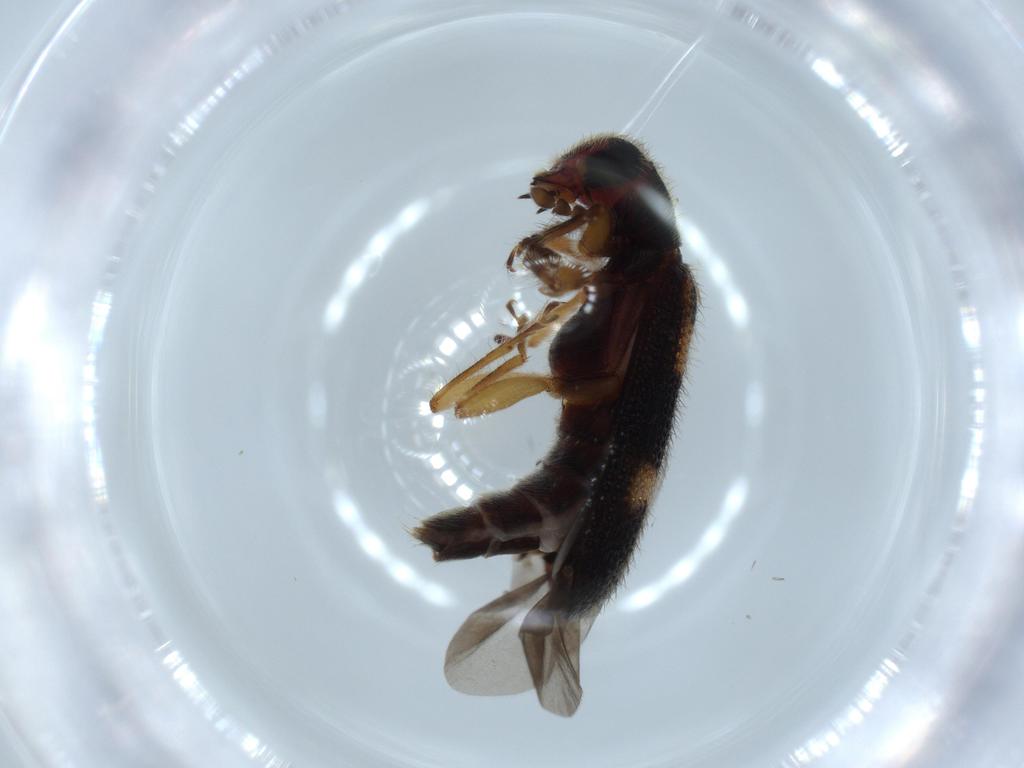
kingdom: Animalia
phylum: Arthropoda
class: Insecta
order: Coleoptera
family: Cleridae
